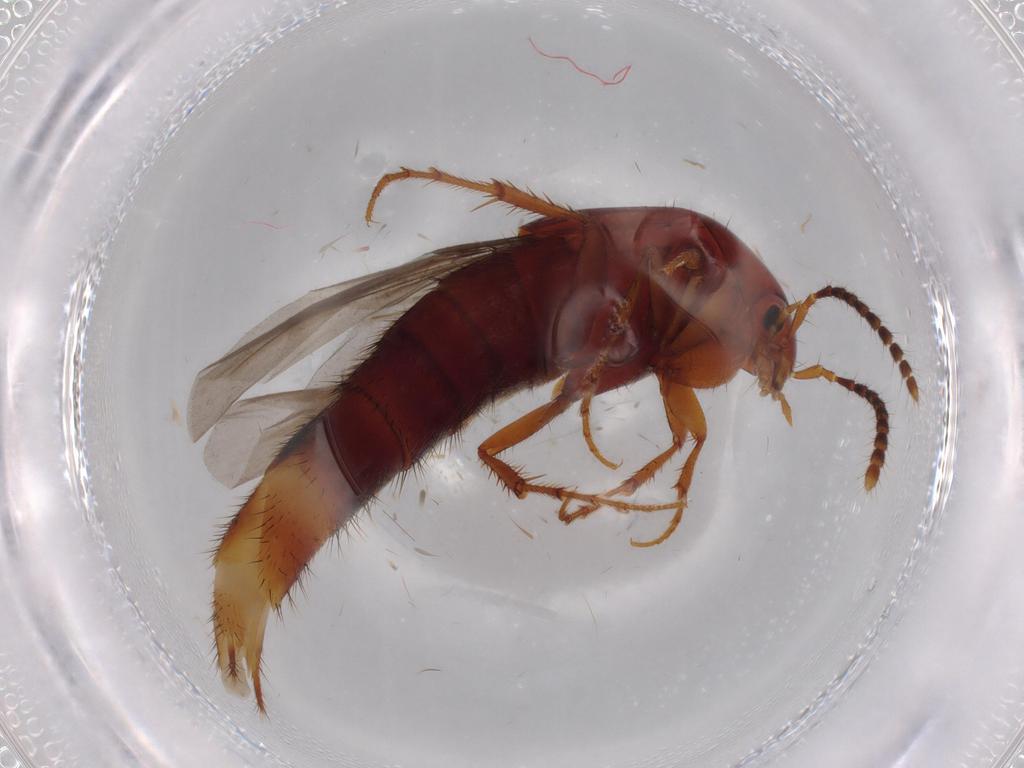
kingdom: Animalia
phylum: Arthropoda
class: Insecta
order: Coleoptera
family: Staphylinidae
